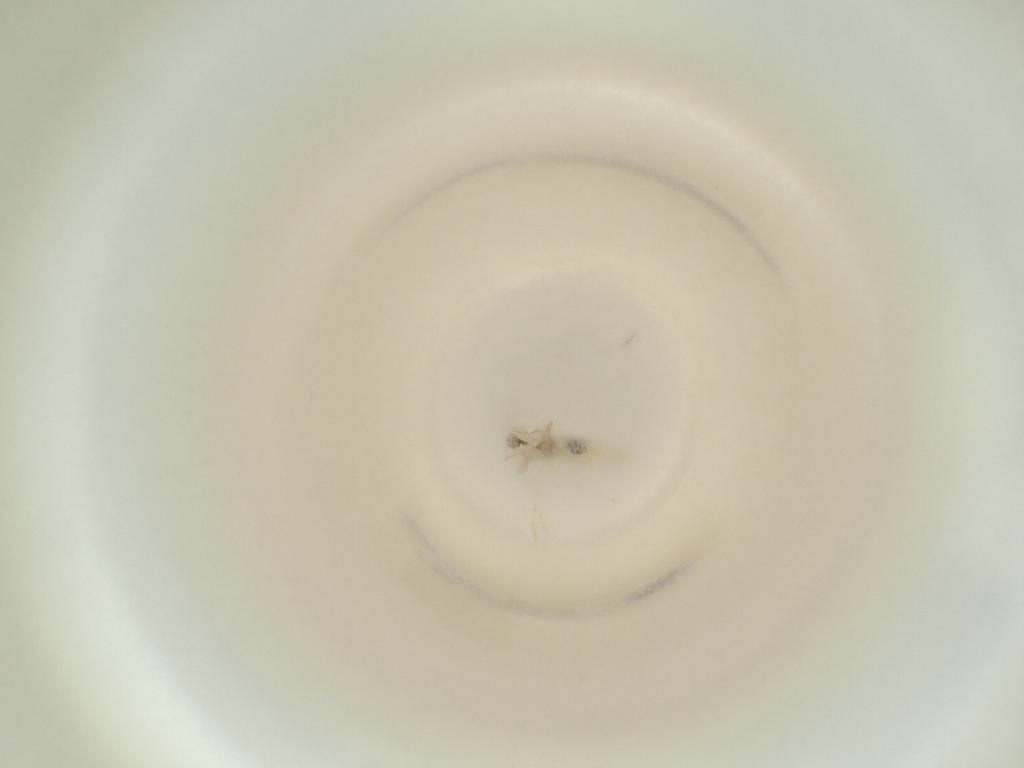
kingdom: Animalia
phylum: Arthropoda
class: Insecta
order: Diptera
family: Cecidomyiidae
